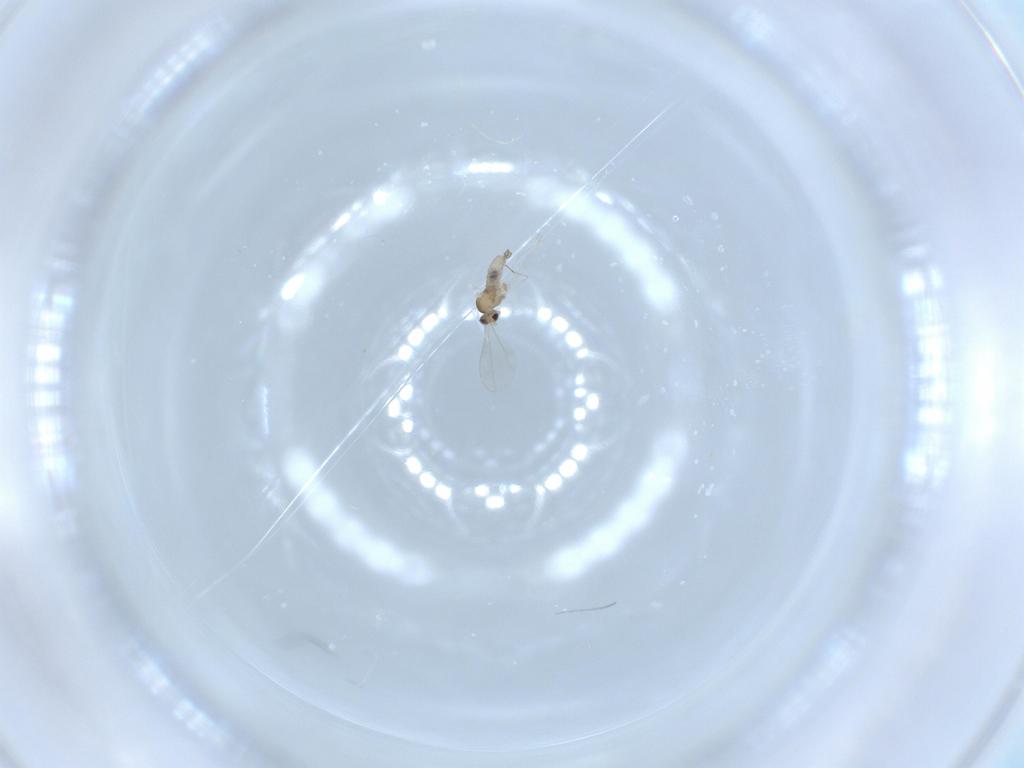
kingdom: Animalia
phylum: Arthropoda
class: Insecta
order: Diptera
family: Cecidomyiidae
